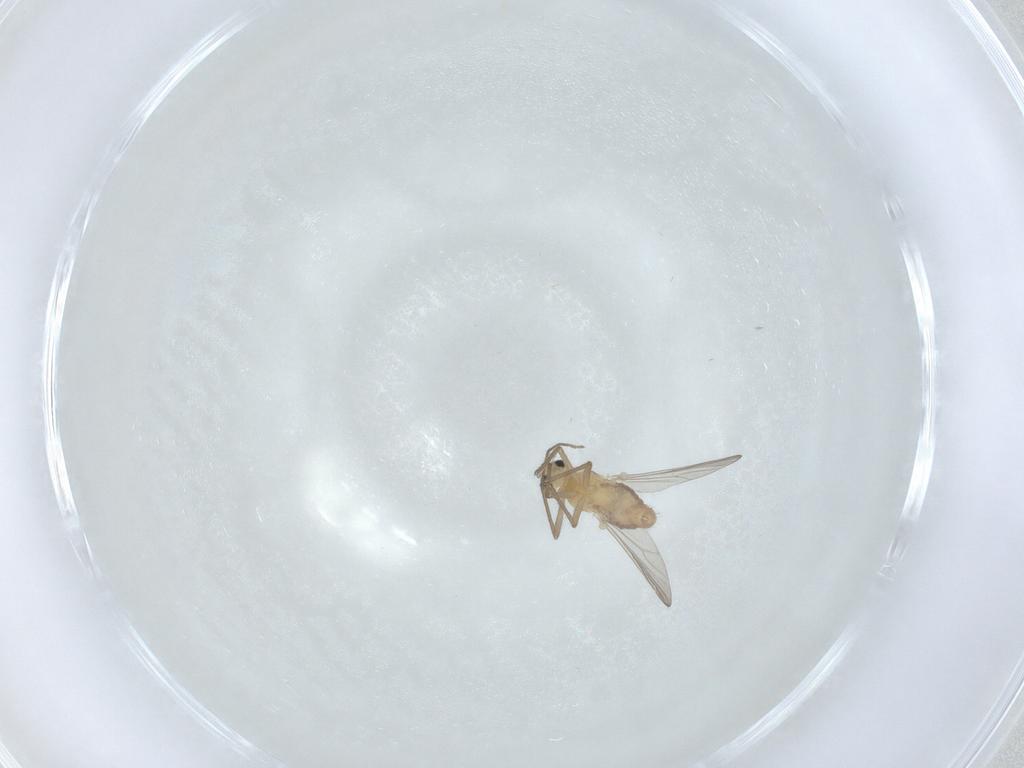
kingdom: Animalia
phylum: Arthropoda
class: Insecta
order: Diptera
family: Chironomidae
